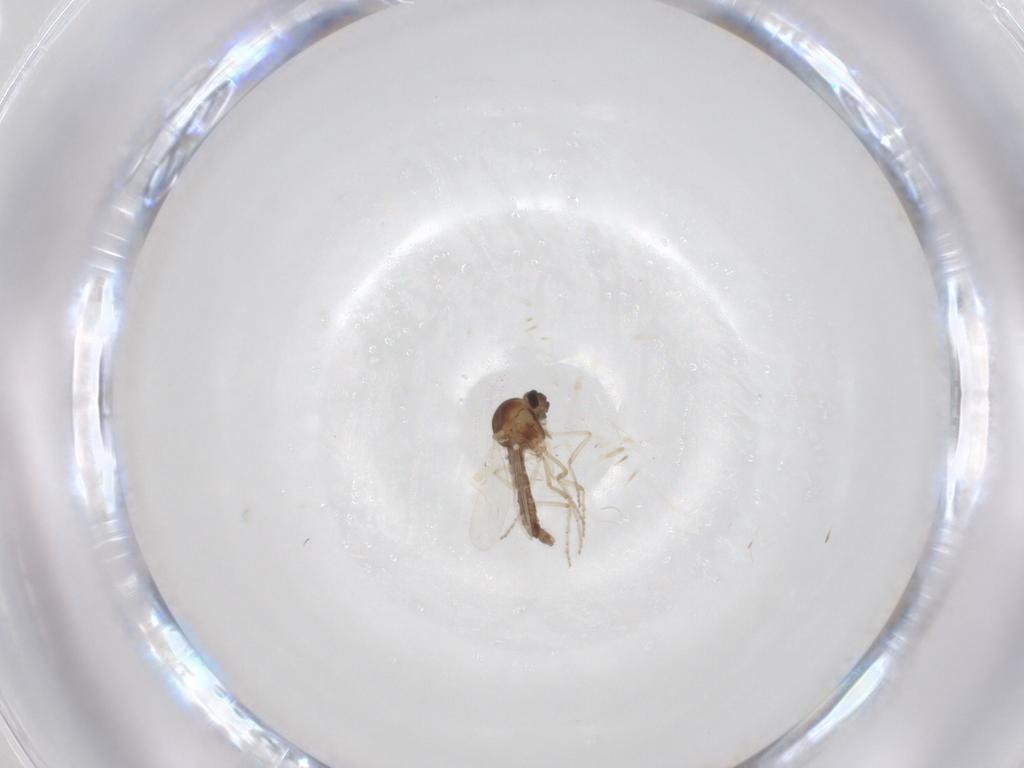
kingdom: Animalia
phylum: Arthropoda
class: Insecta
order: Diptera
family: Ceratopogonidae
